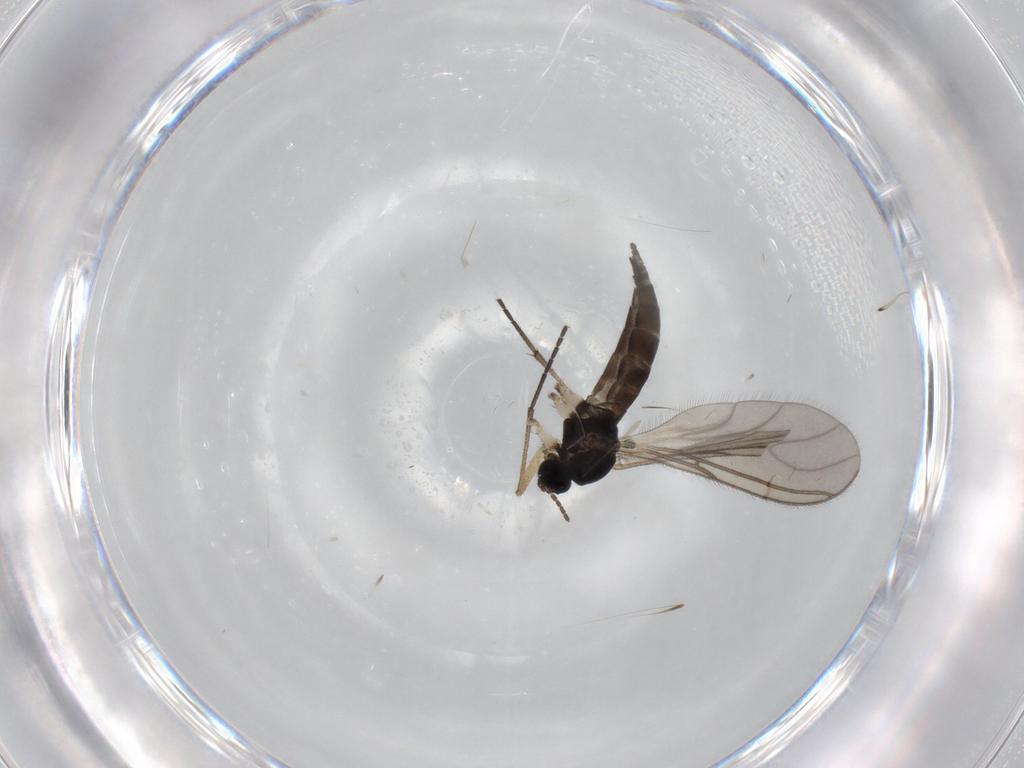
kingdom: Animalia
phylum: Arthropoda
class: Insecta
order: Diptera
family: Sciaridae
